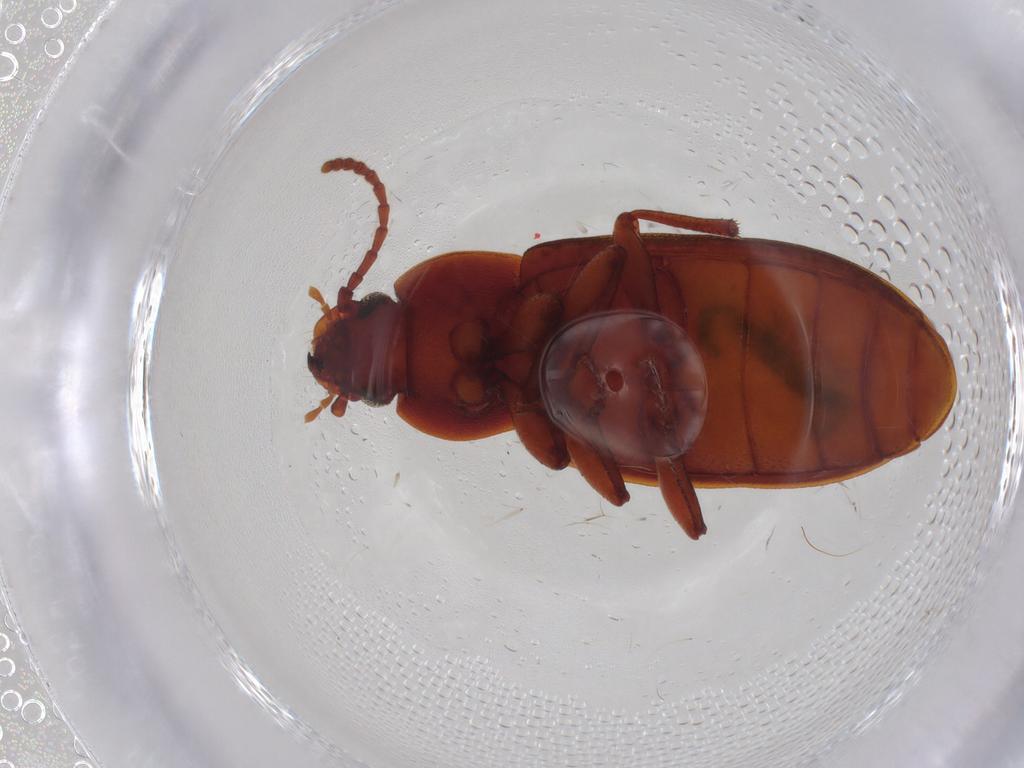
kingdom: Animalia
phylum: Arthropoda
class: Insecta
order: Coleoptera
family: Tenebrionidae
